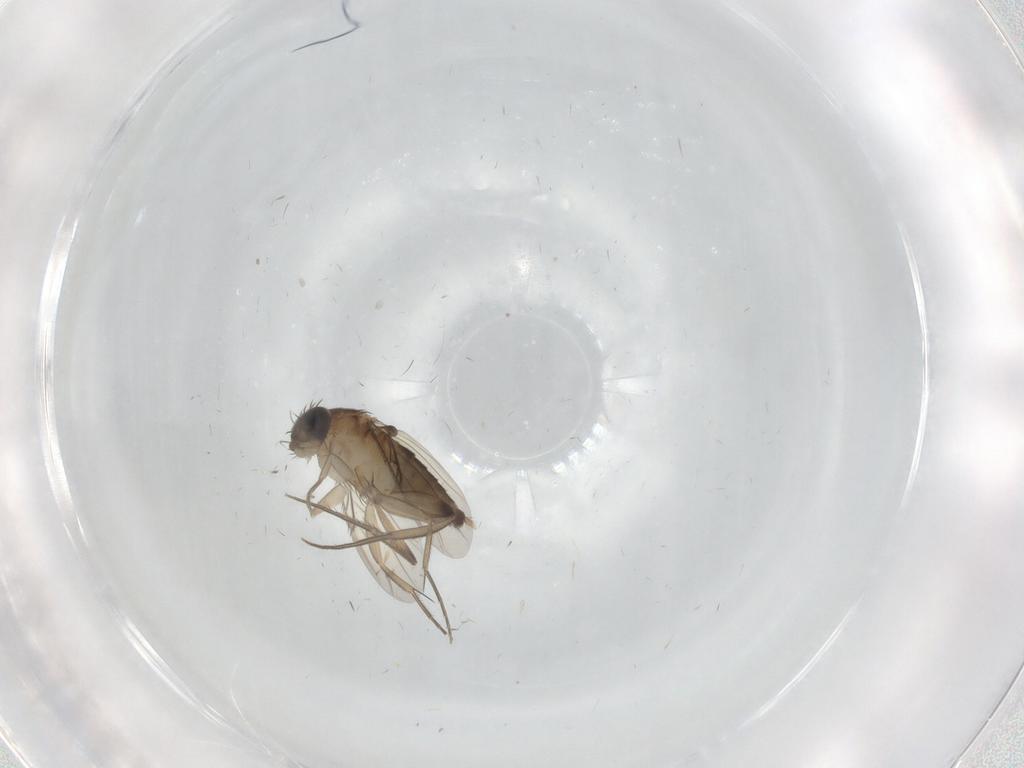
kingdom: Animalia
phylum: Arthropoda
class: Insecta
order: Diptera
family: Phoridae
